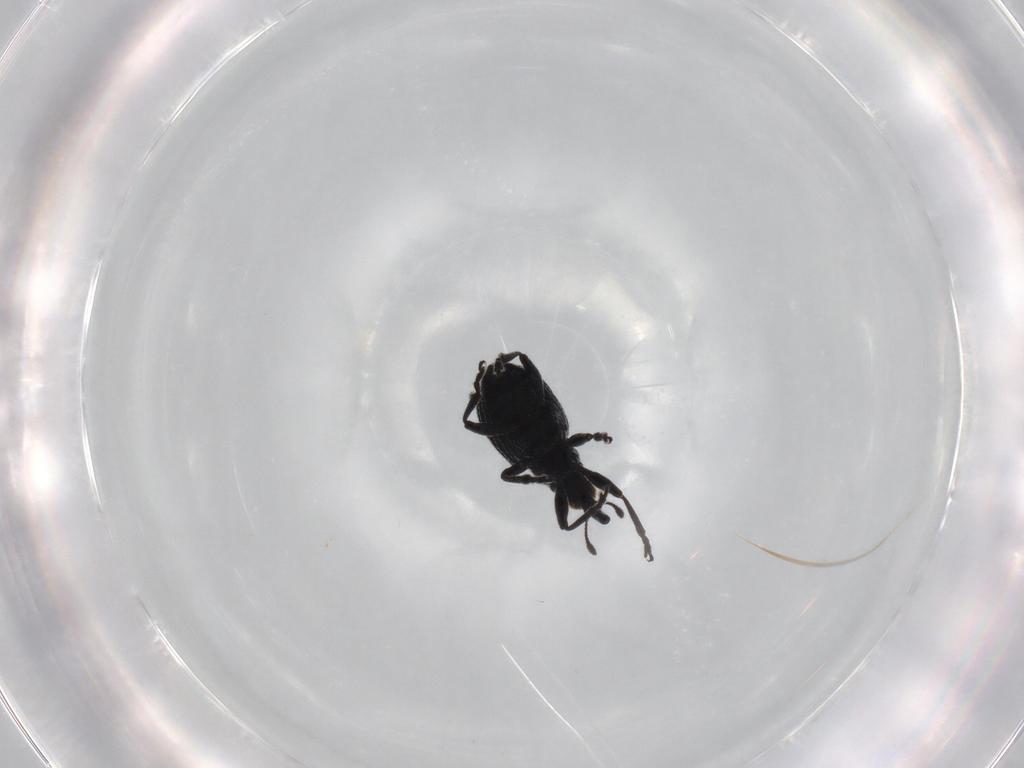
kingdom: Animalia
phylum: Arthropoda
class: Insecta
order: Coleoptera
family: Brentidae
